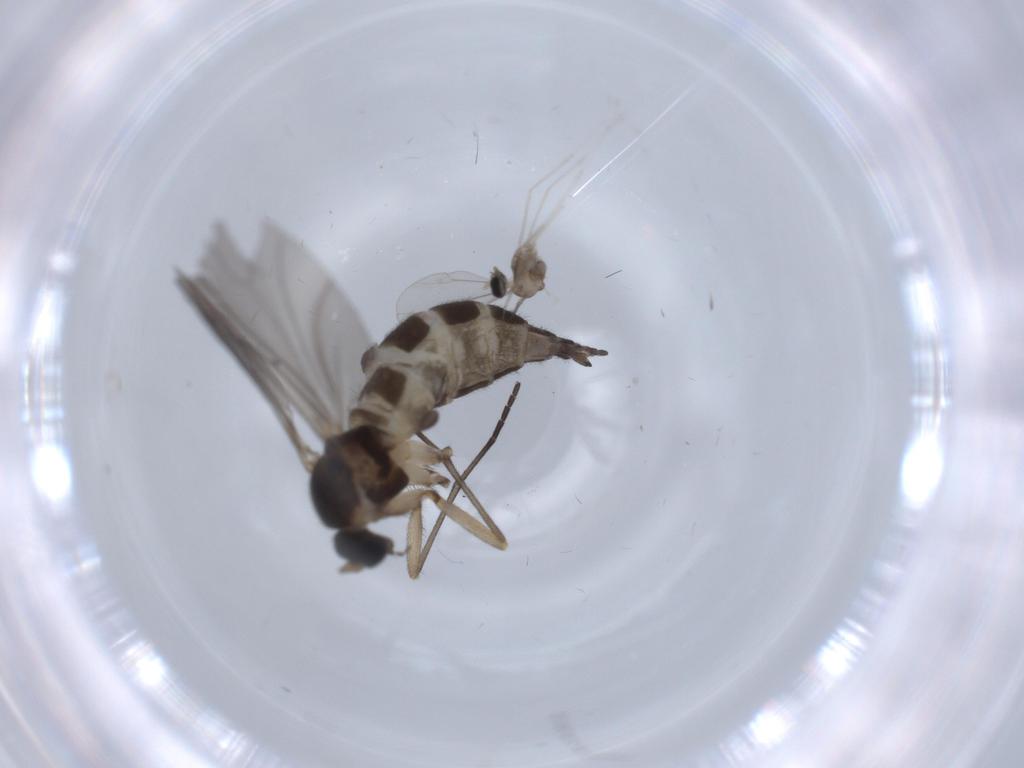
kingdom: Animalia
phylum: Arthropoda
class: Insecta
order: Diptera
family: Sciaridae
